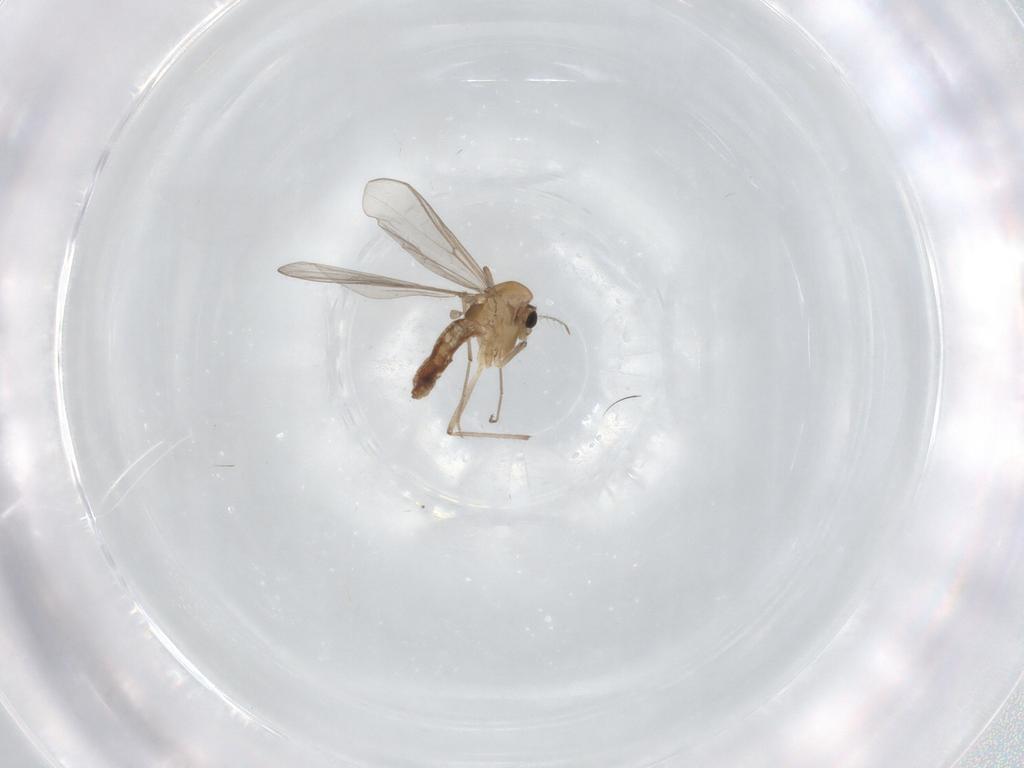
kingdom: Animalia
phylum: Arthropoda
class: Insecta
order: Diptera
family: Chironomidae
